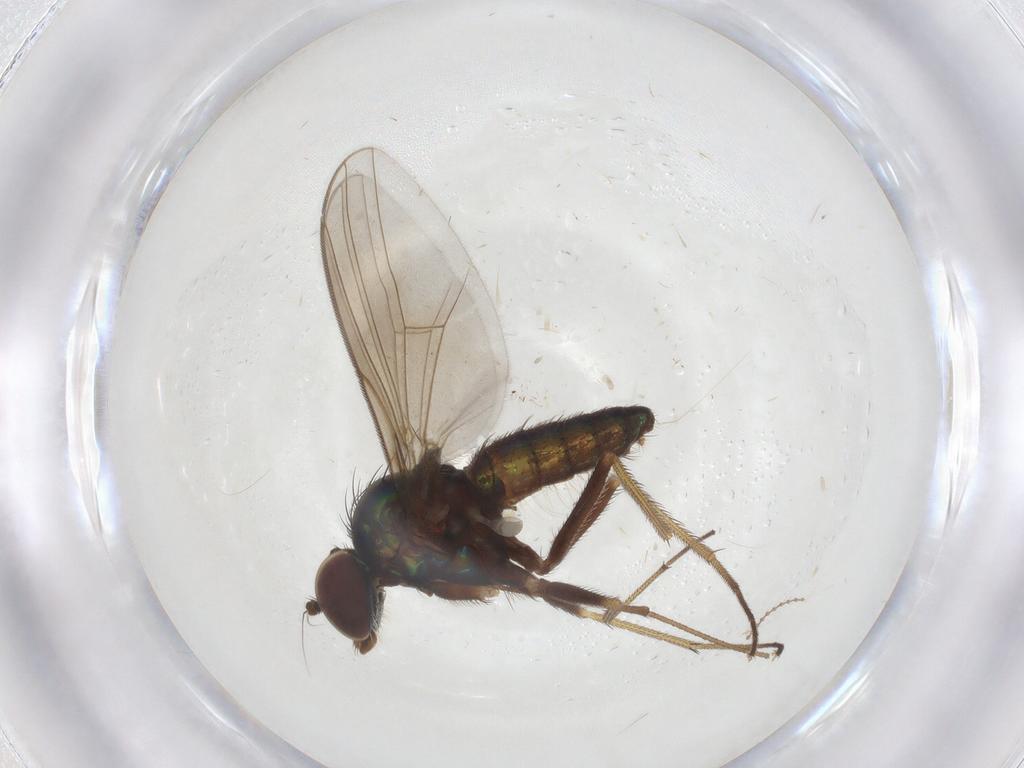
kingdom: Animalia
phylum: Arthropoda
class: Insecta
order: Diptera
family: Dolichopodidae
